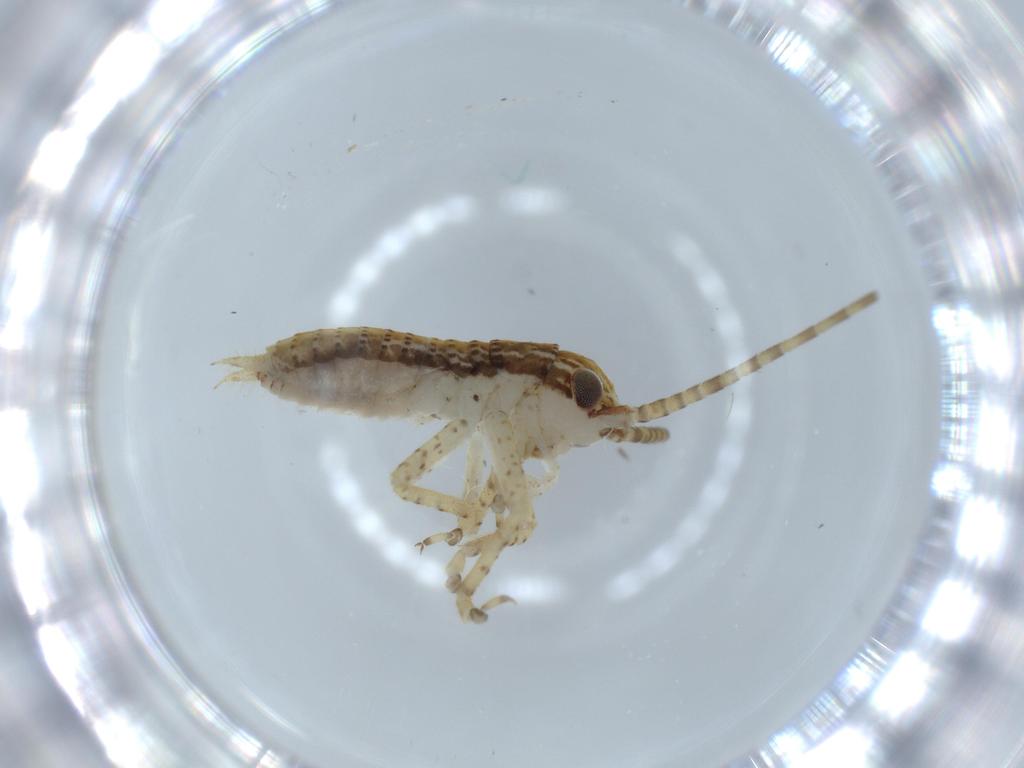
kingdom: Animalia
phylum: Arthropoda
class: Insecta
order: Orthoptera
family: Gryllidae
